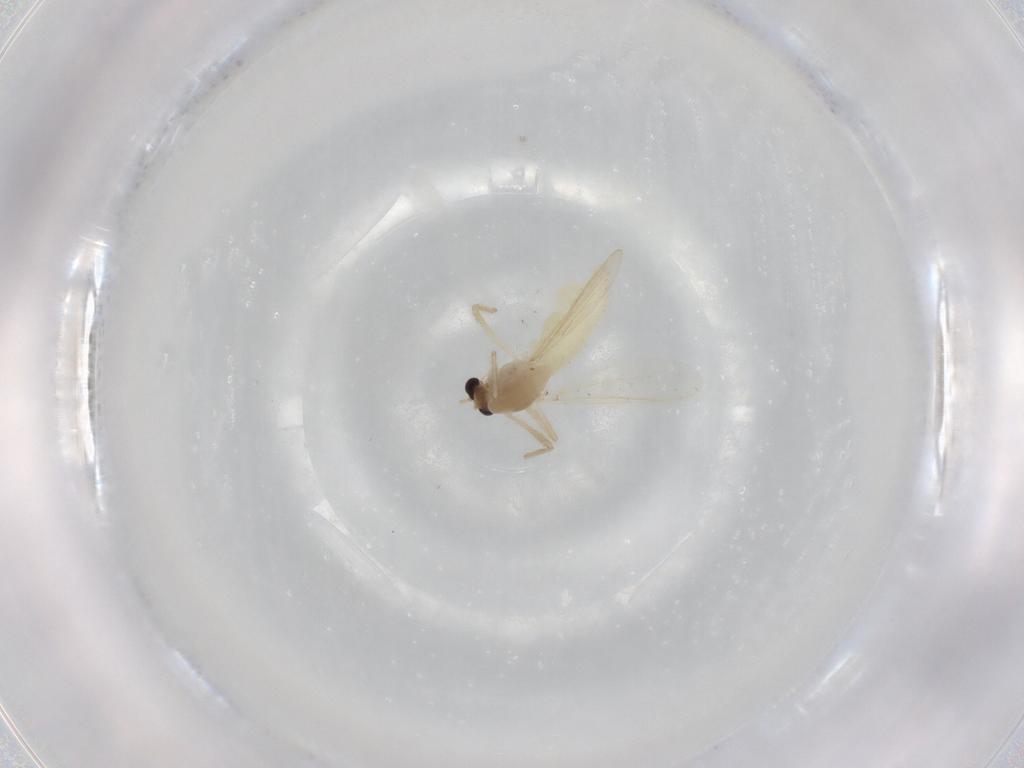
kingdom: Animalia
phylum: Arthropoda
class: Insecta
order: Diptera
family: Chironomidae
